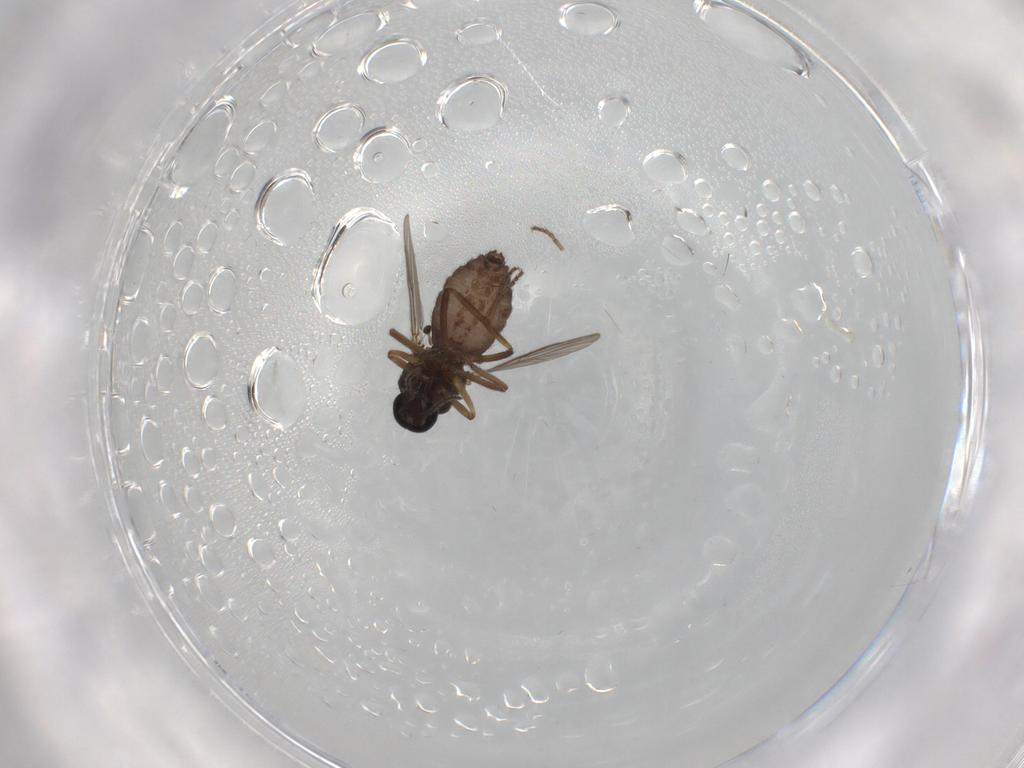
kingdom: Animalia
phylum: Arthropoda
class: Insecta
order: Diptera
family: Ceratopogonidae
